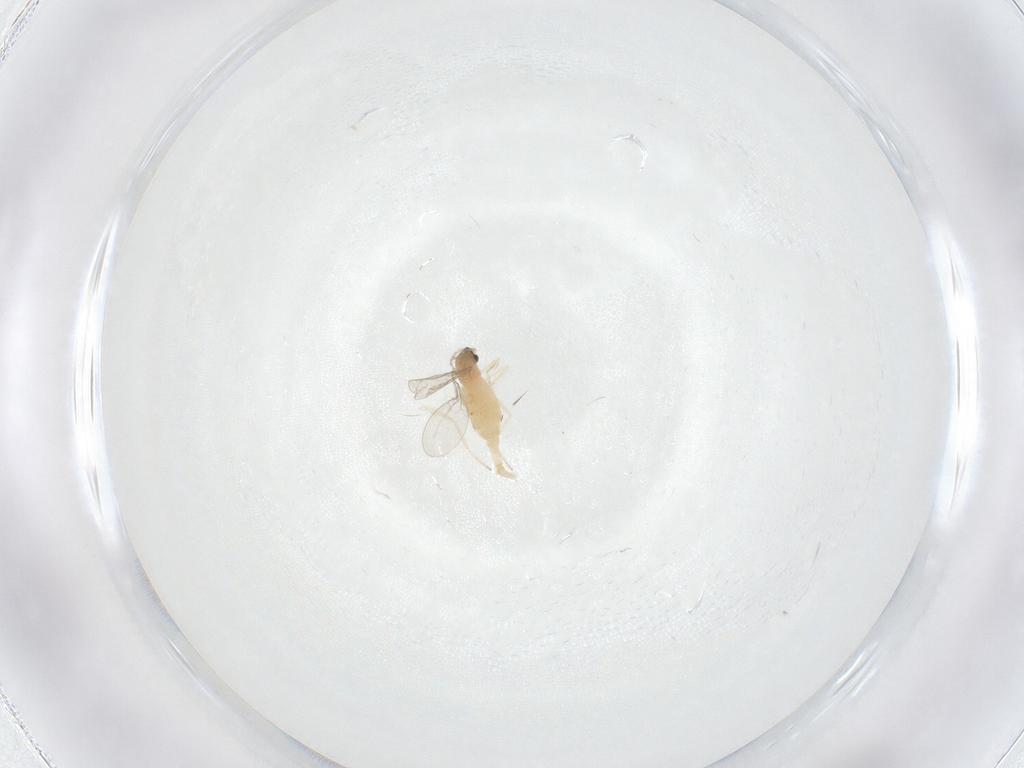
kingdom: Animalia
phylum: Arthropoda
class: Insecta
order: Diptera
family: Cecidomyiidae
